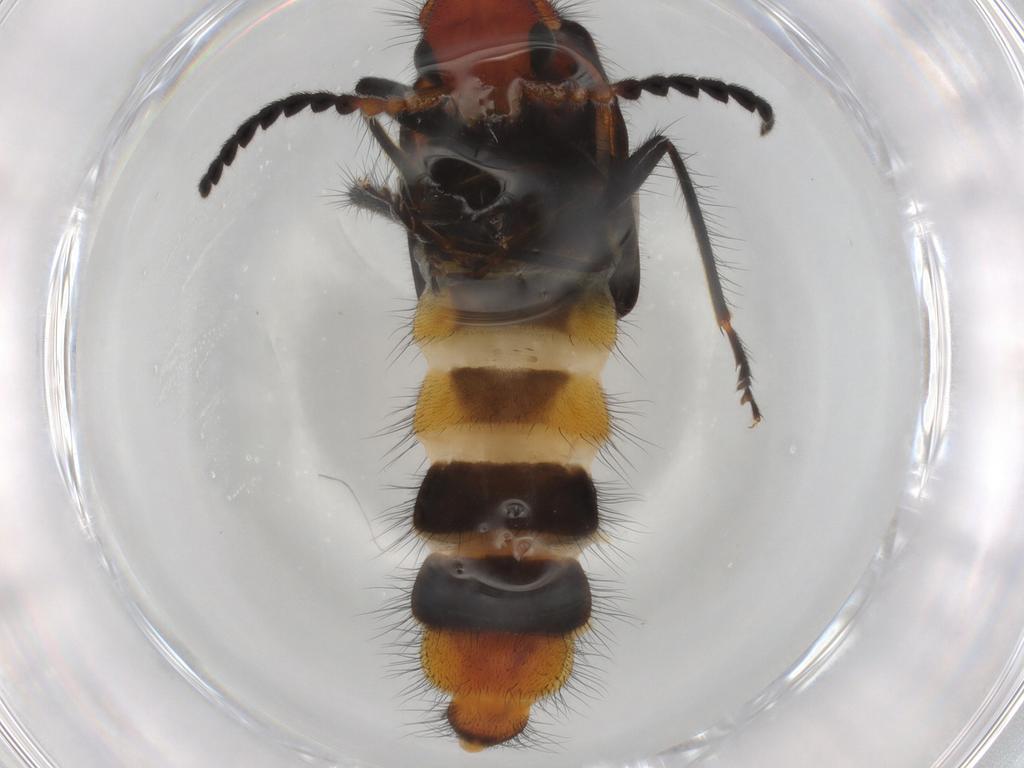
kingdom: Animalia
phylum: Arthropoda
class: Insecta
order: Coleoptera
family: Melyridae
